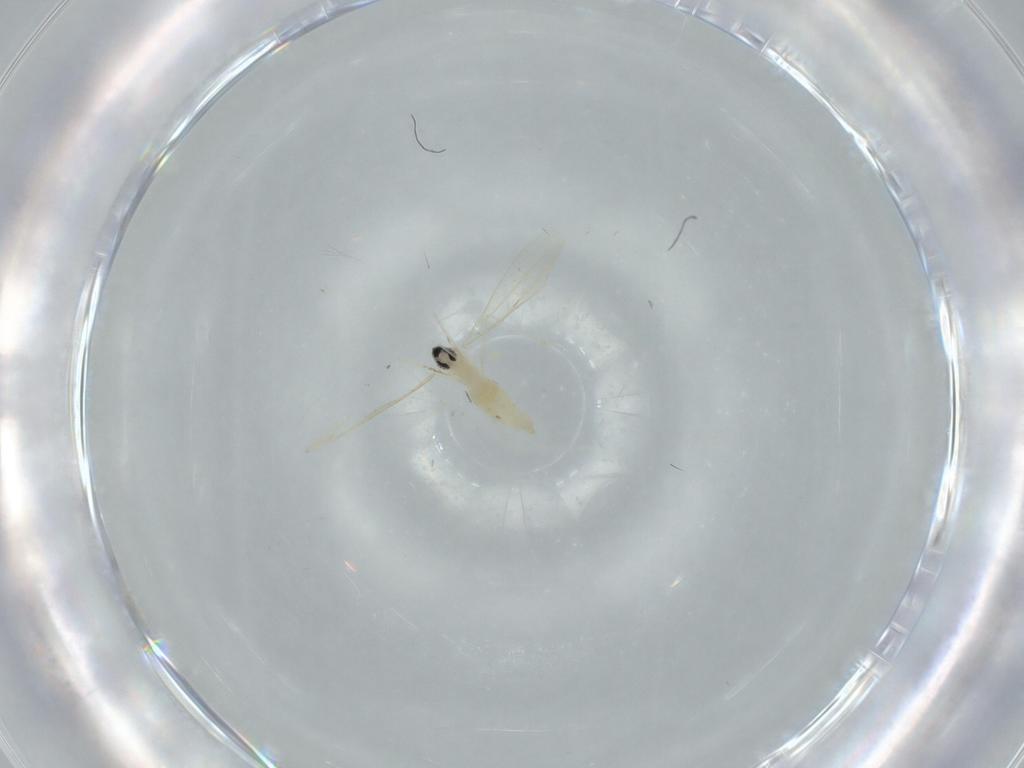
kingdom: Animalia
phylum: Arthropoda
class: Insecta
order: Diptera
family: Cecidomyiidae
